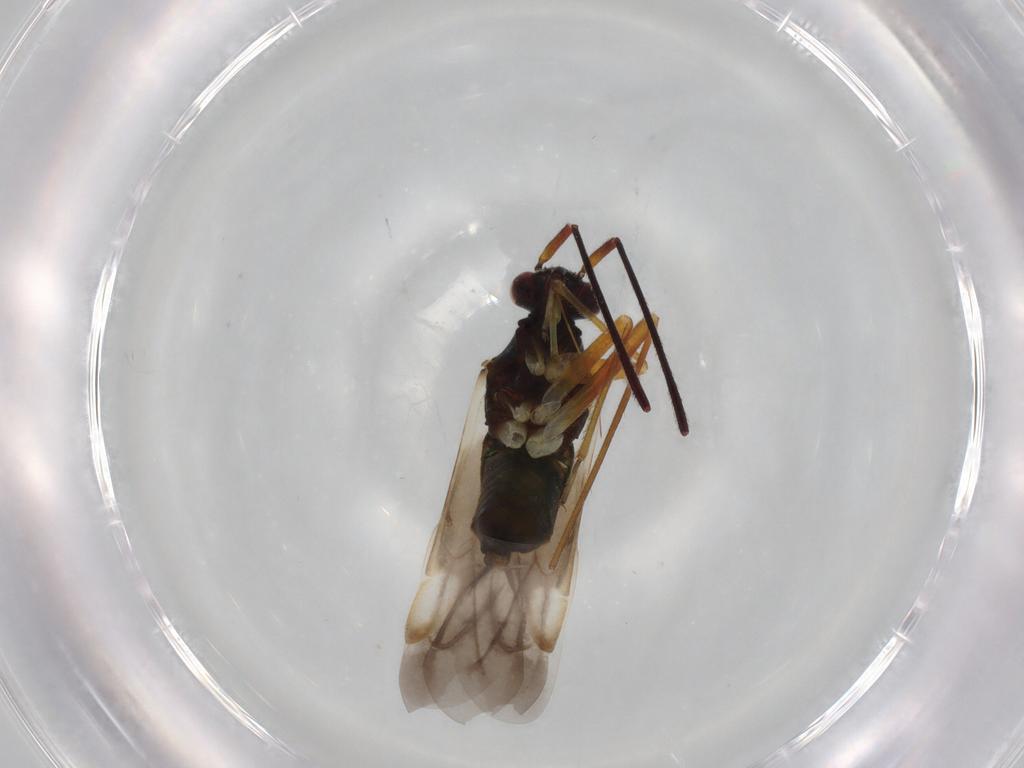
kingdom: Animalia
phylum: Arthropoda
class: Insecta
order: Hemiptera
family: Miridae
